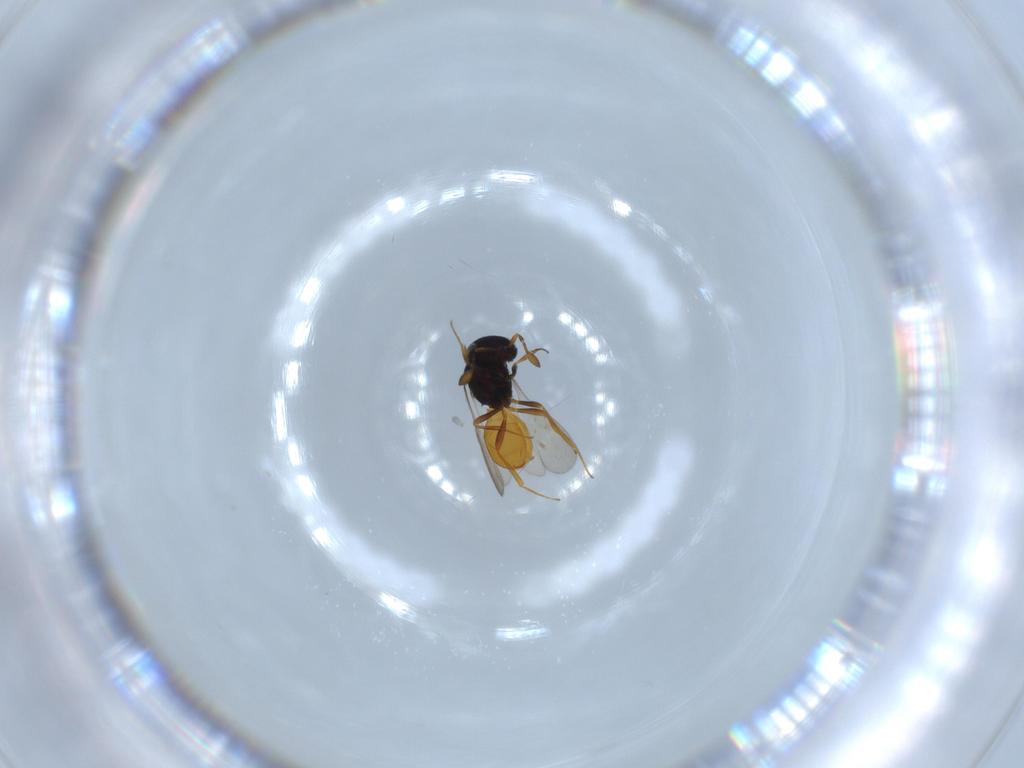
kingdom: Animalia
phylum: Arthropoda
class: Insecta
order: Hymenoptera
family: Scelionidae
